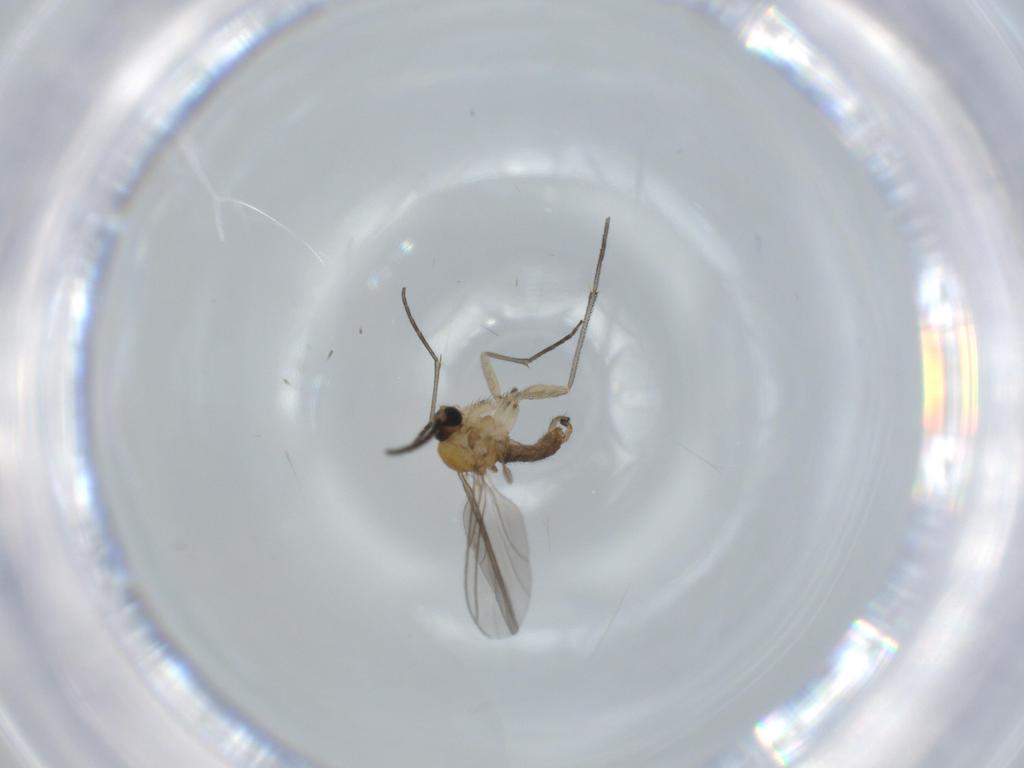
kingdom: Animalia
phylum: Arthropoda
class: Insecta
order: Diptera
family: Sciaridae
